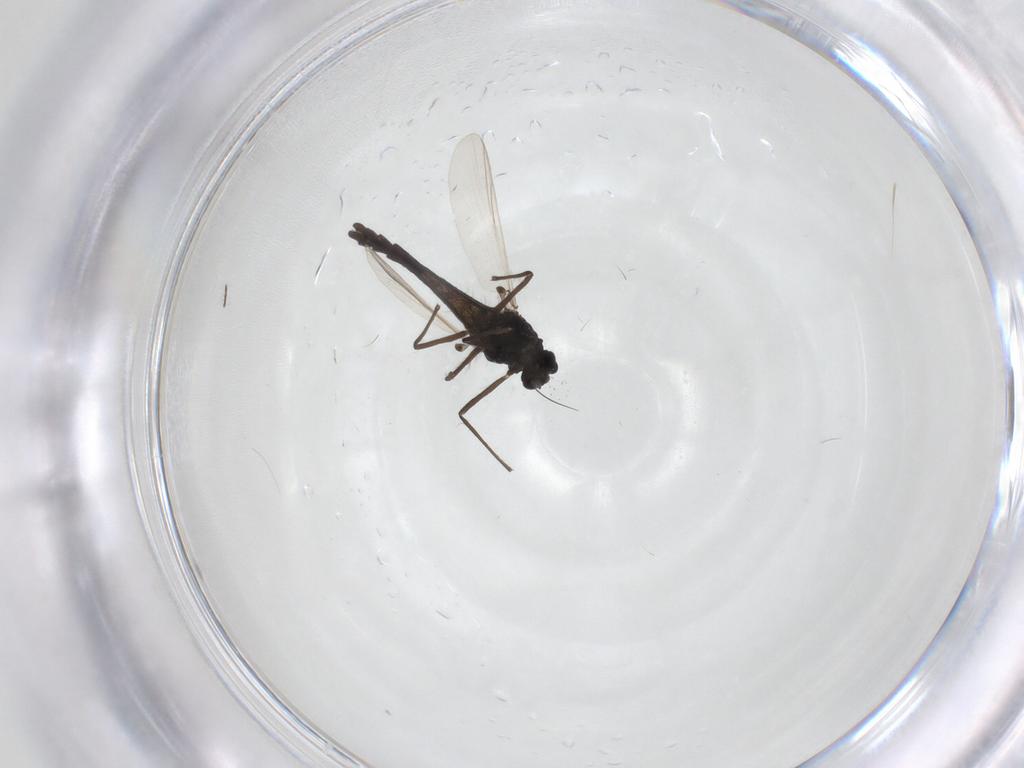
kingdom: Animalia
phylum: Arthropoda
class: Insecta
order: Diptera
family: Chironomidae
